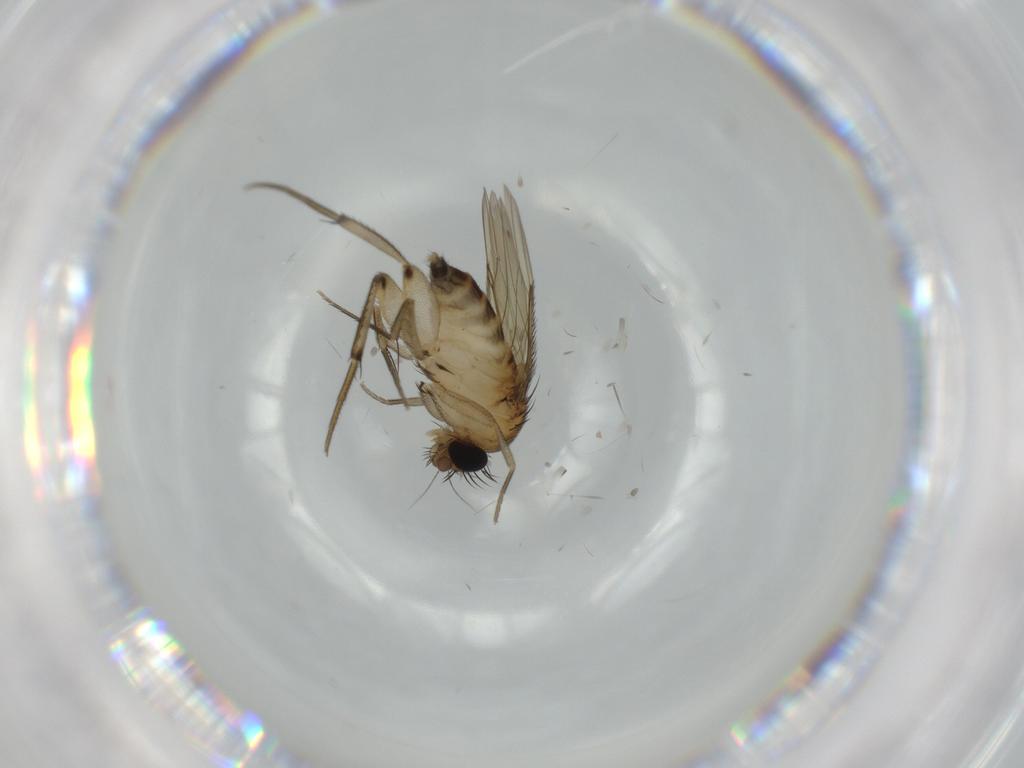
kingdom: Animalia
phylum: Arthropoda
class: Insecta
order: Diptera
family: Phoridae
